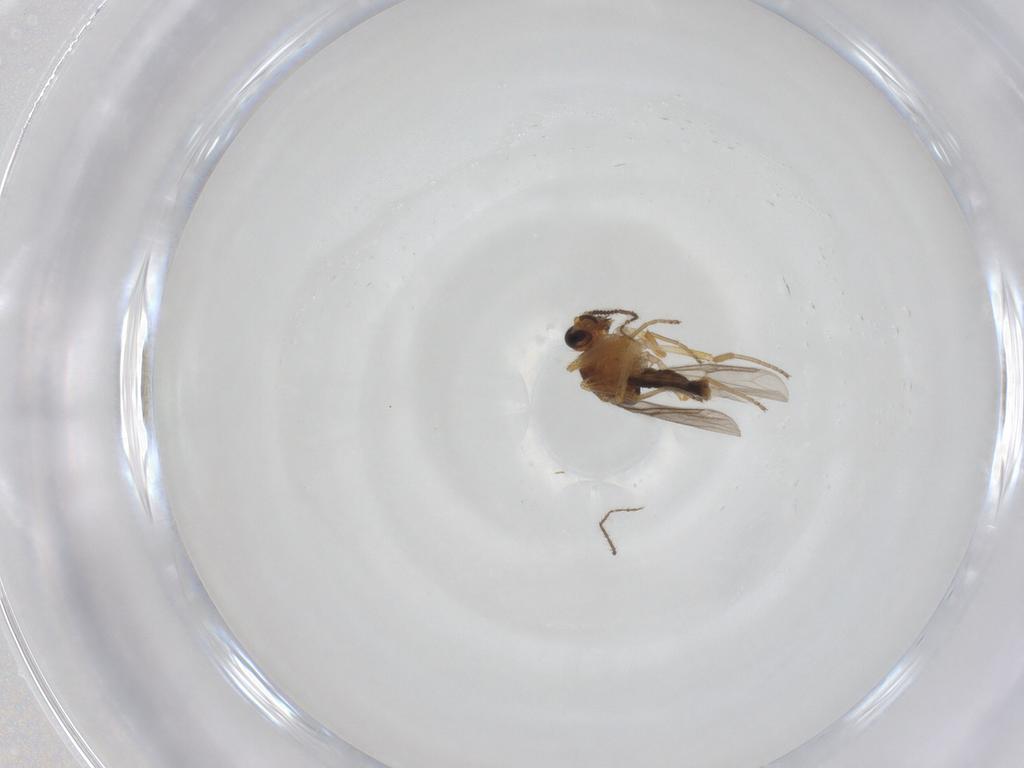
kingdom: Animalia
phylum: Arthropoda
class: Insecta
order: Diptera
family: Ceratopogonidae
